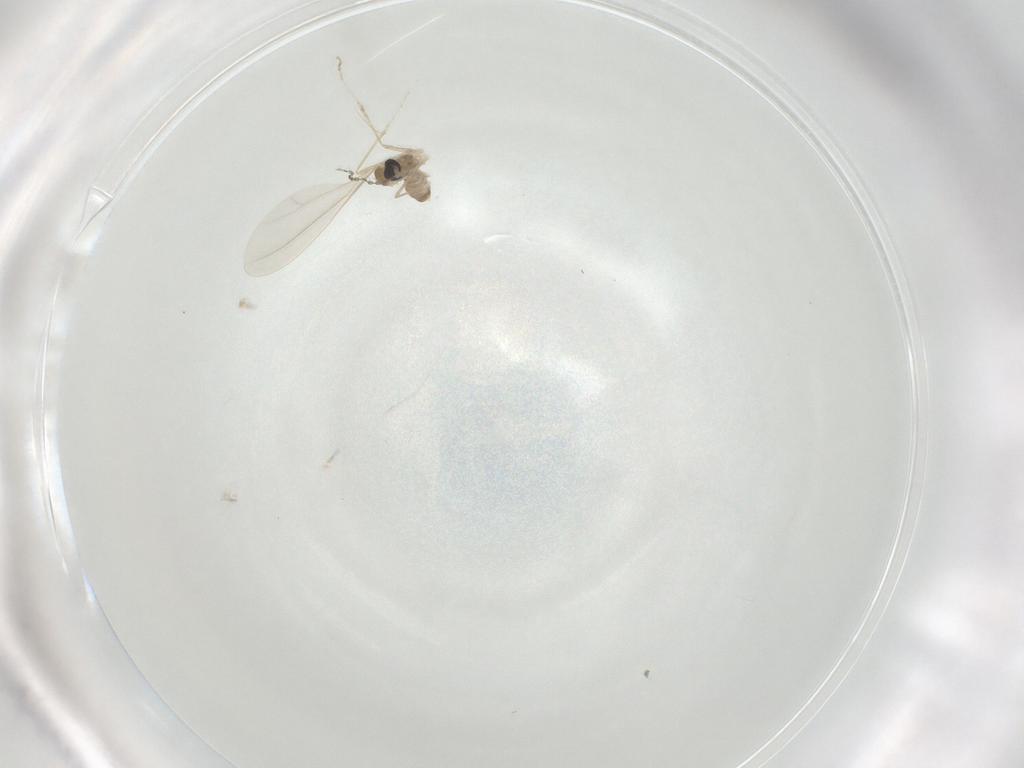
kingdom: Animalia
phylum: Arthropoda
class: Insecta
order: Diptera
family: Cecidomyiidae
